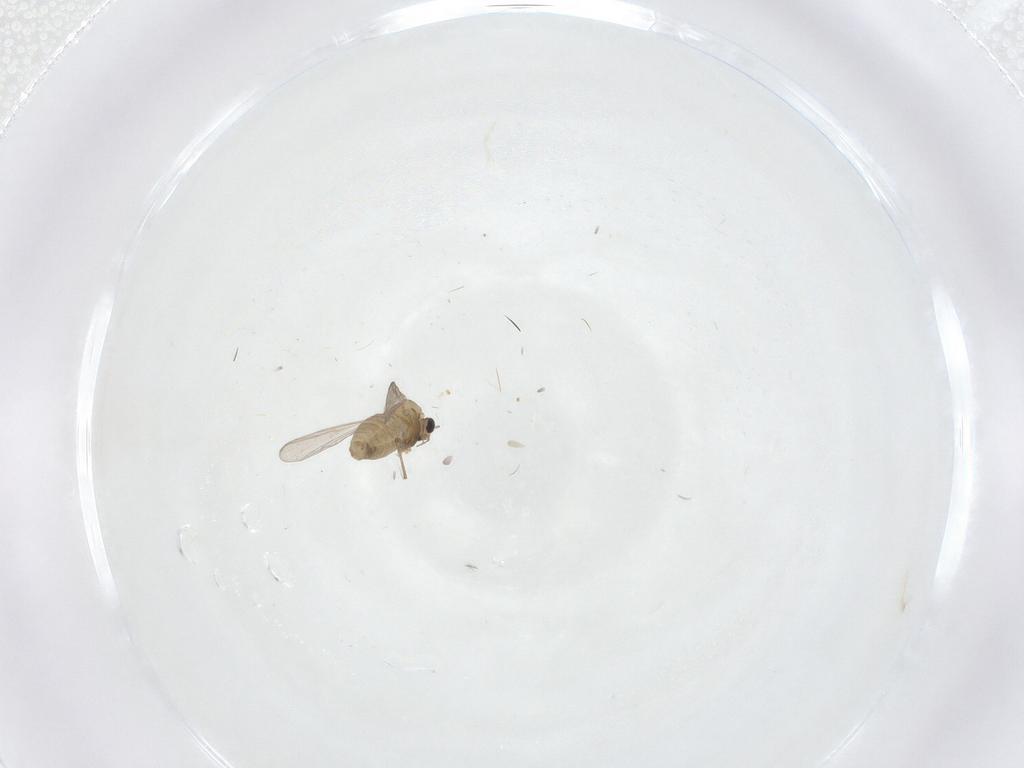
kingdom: Animalia
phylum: Arthropoda
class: Insecta
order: Diptera
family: Chironomidae
